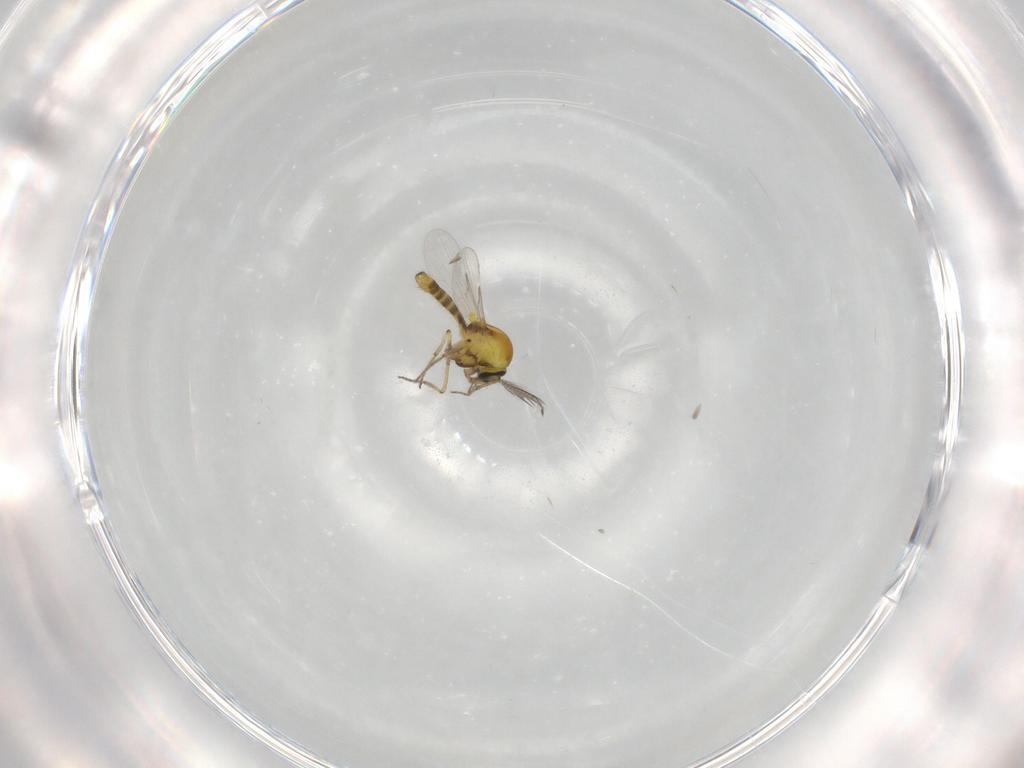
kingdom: Animalia
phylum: Arthropoda
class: Insecta
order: Diptera
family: Ceratopogonidae
